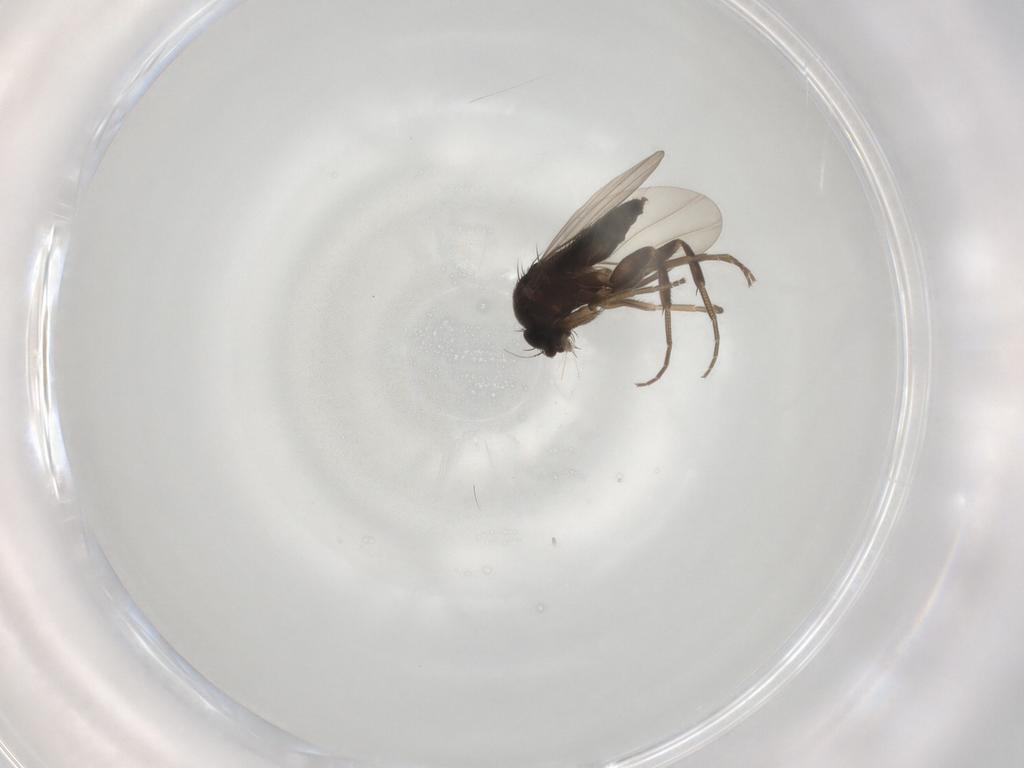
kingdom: Animalia
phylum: Arthropoda
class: Insecta
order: Diptera
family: Phoridae
